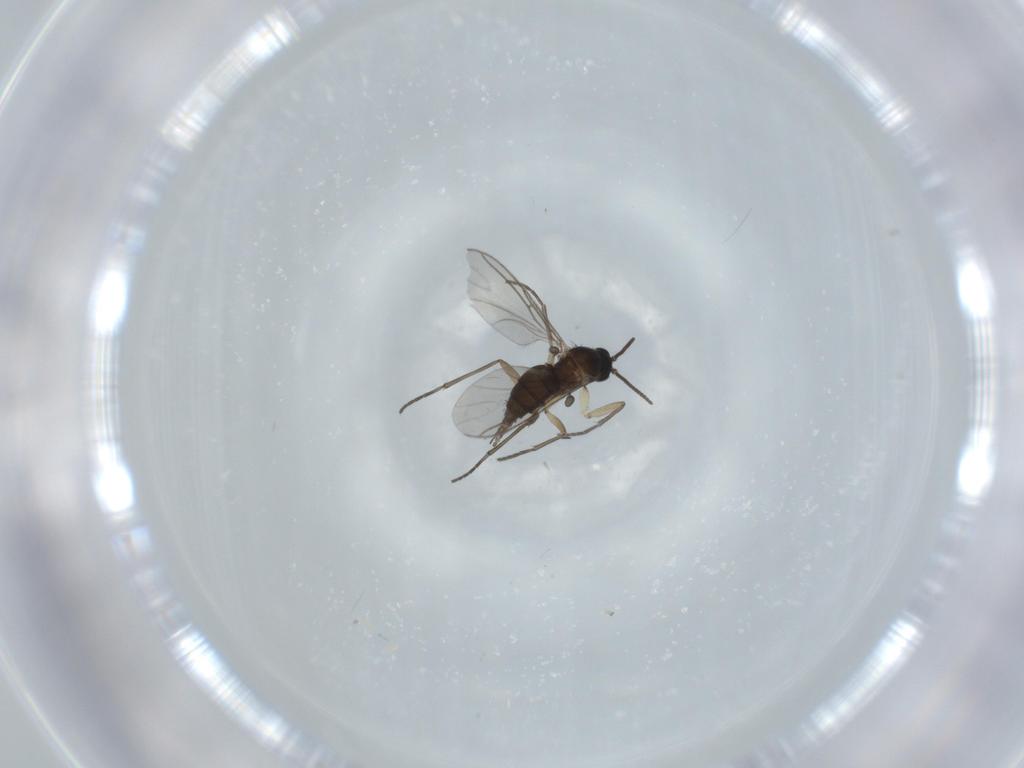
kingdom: Animalia
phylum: Arthropoda
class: Insecta
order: Diptera
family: Sciaridae
